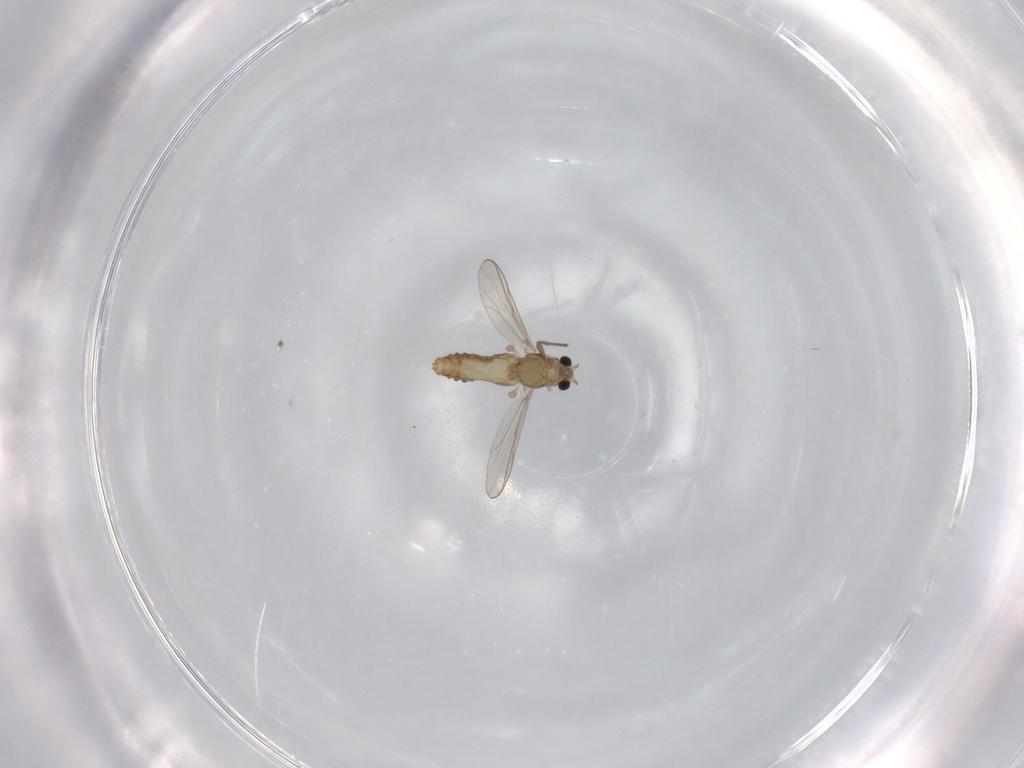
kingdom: Animalia
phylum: Arthropoda
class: Insecta
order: Diptera
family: Chironomidae
